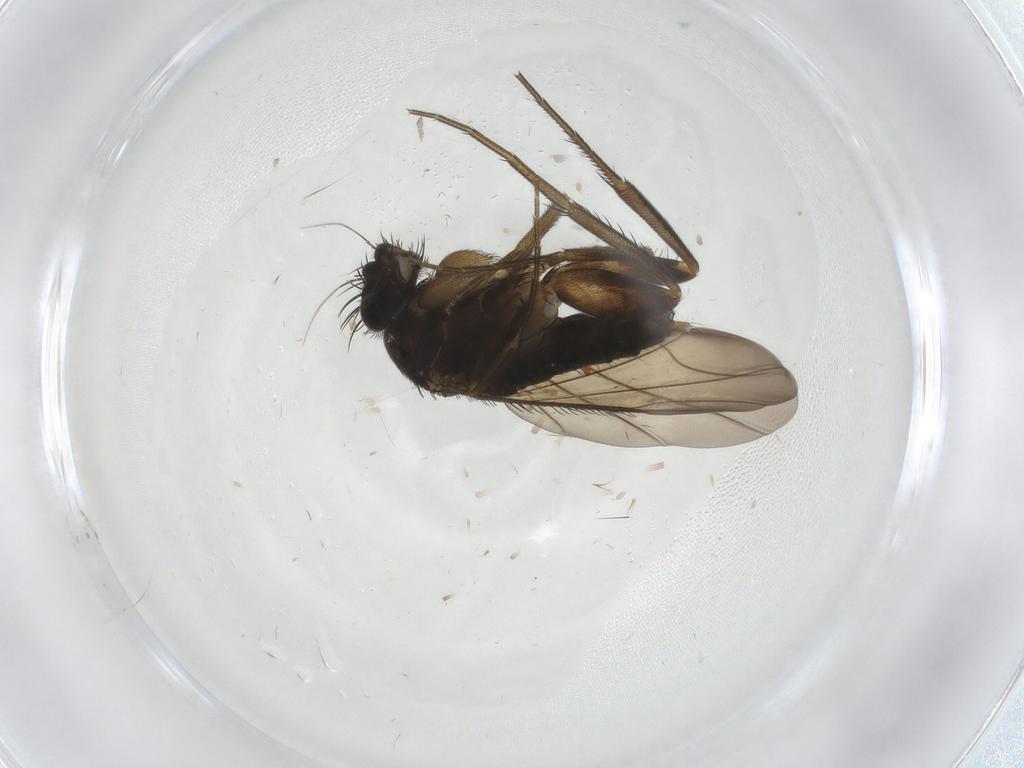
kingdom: Animalia
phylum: Arthropoda
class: Insecta
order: Diptera
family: Phoridae
